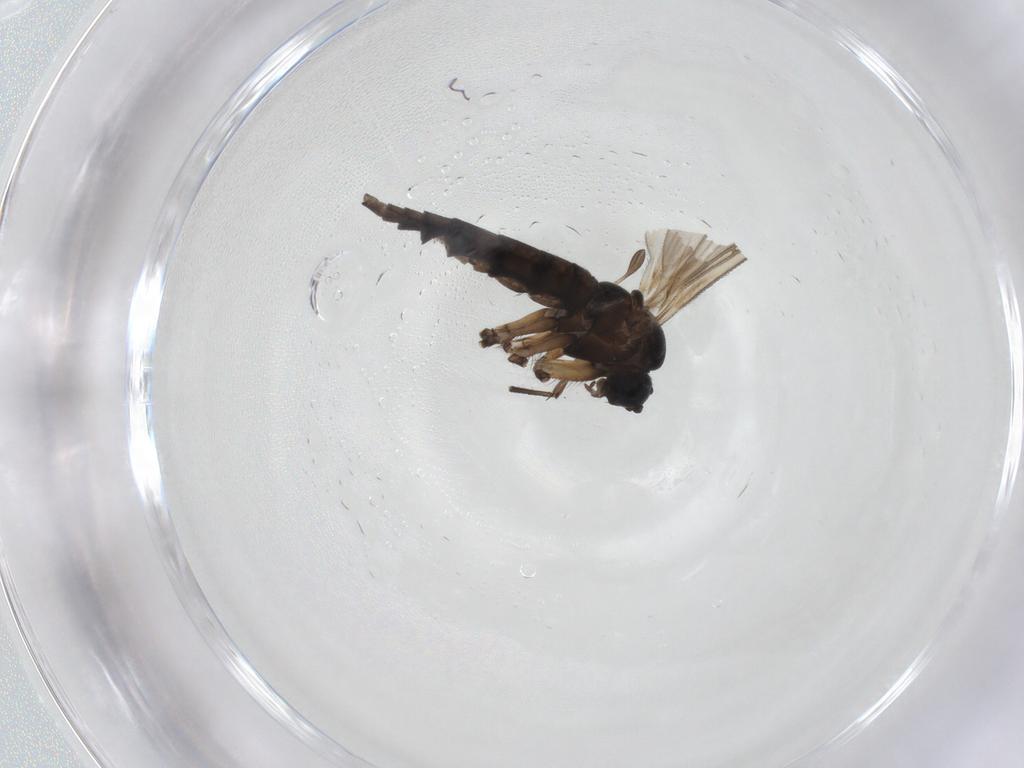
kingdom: Animalia
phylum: Arthropoda
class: Insecta
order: Diptera
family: Sciaridae
